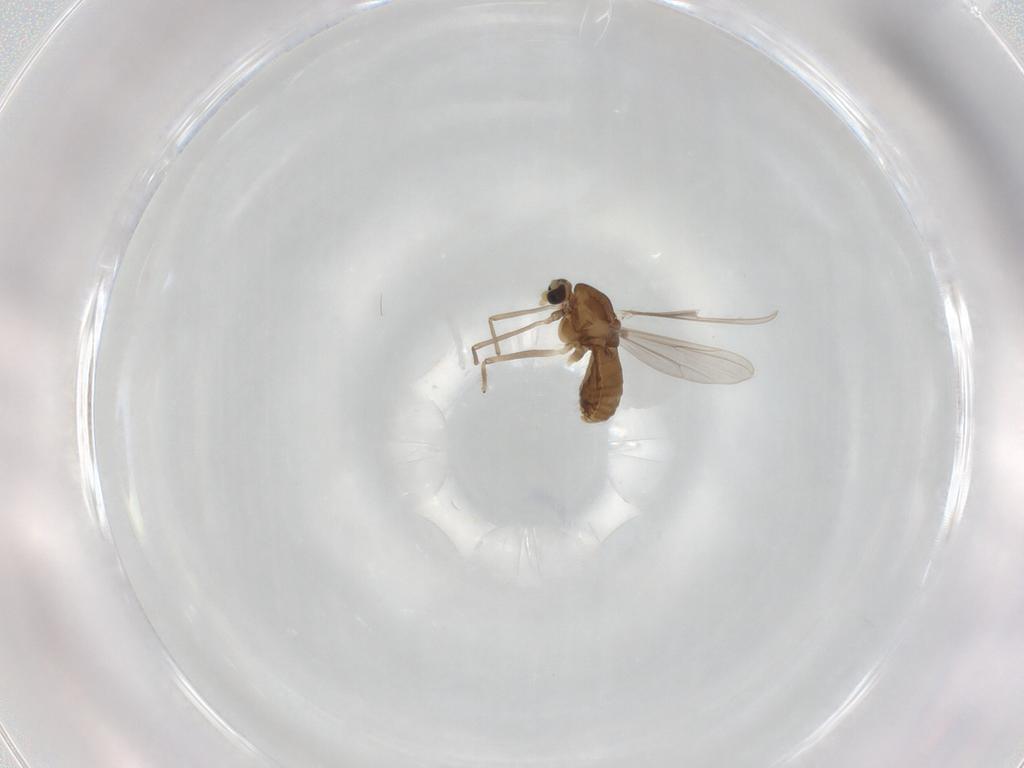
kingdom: Animalia
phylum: Arthropoda
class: Insecta
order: Diptera
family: Chironomidae
